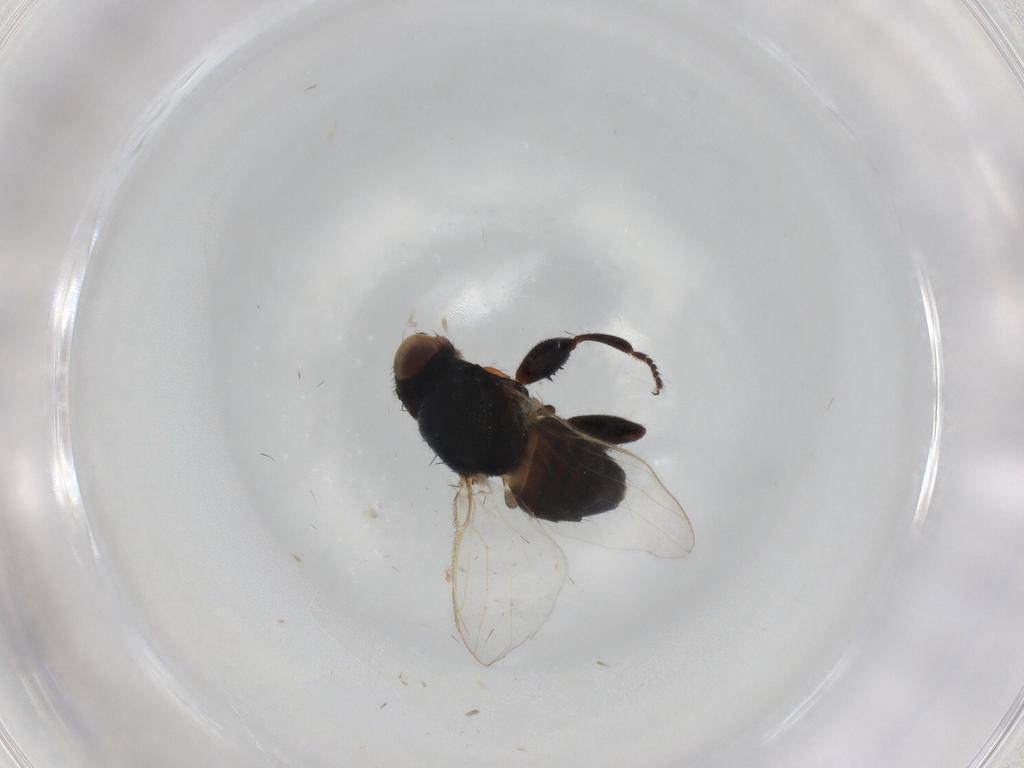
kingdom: Animalia
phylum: Arthropoda
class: Insecta
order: Diptera
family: Chloropidae
